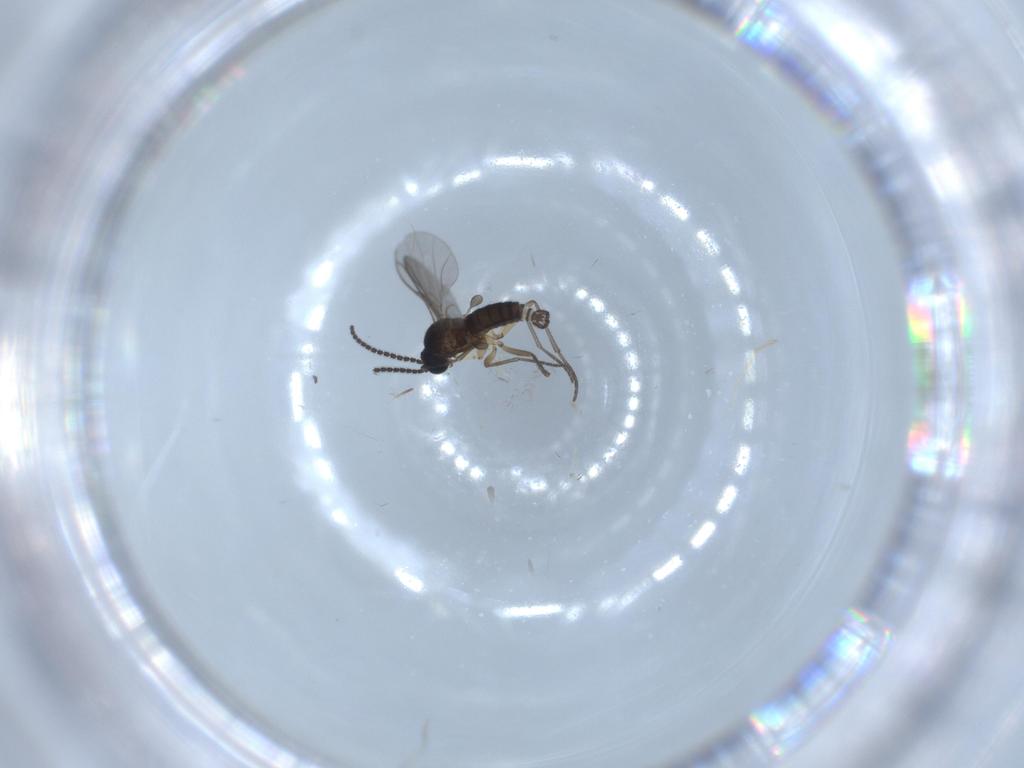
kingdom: Animalia
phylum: Arthropoda
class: Insecta
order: Diptera
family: Sciaridae
